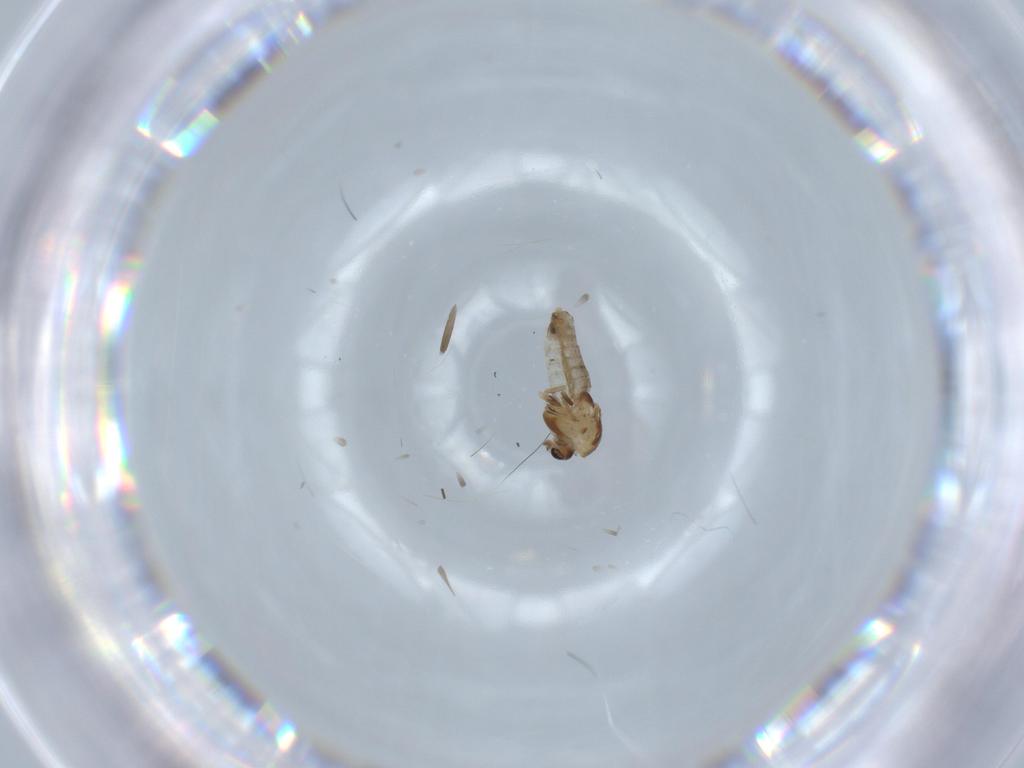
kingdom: Animalia
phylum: Arthropoda
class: Insecta
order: Diptera
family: Chironomidae
